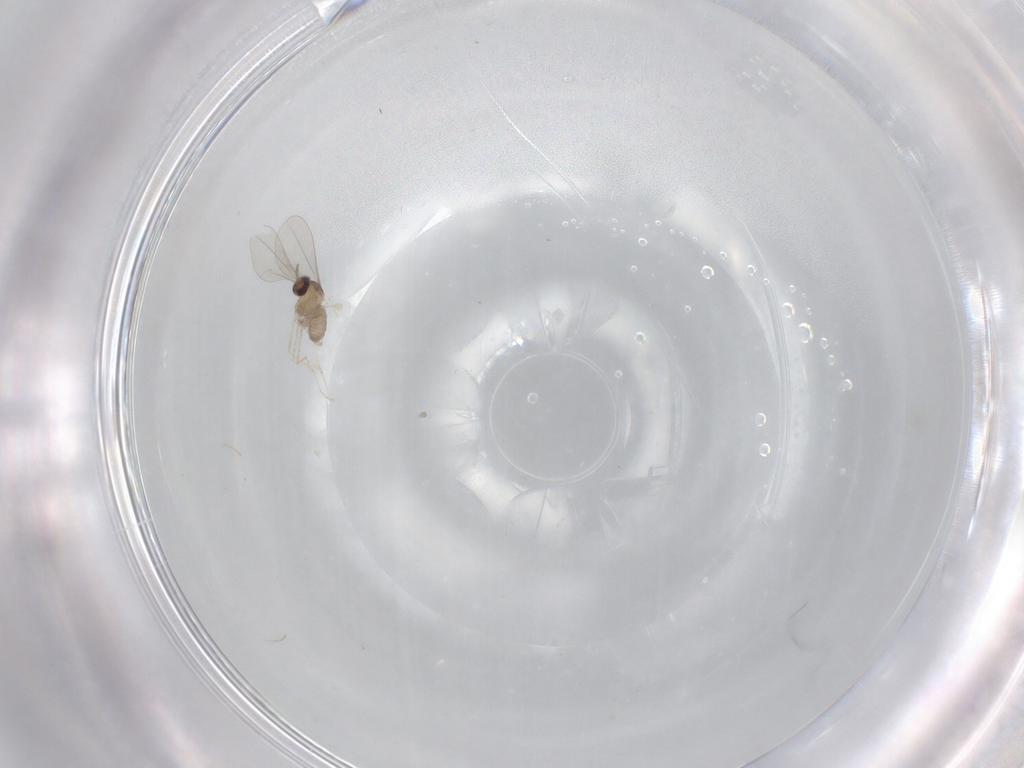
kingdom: Animalia
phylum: Arthropoda
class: Insecta
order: Diptera
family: Cecidomyiidae
